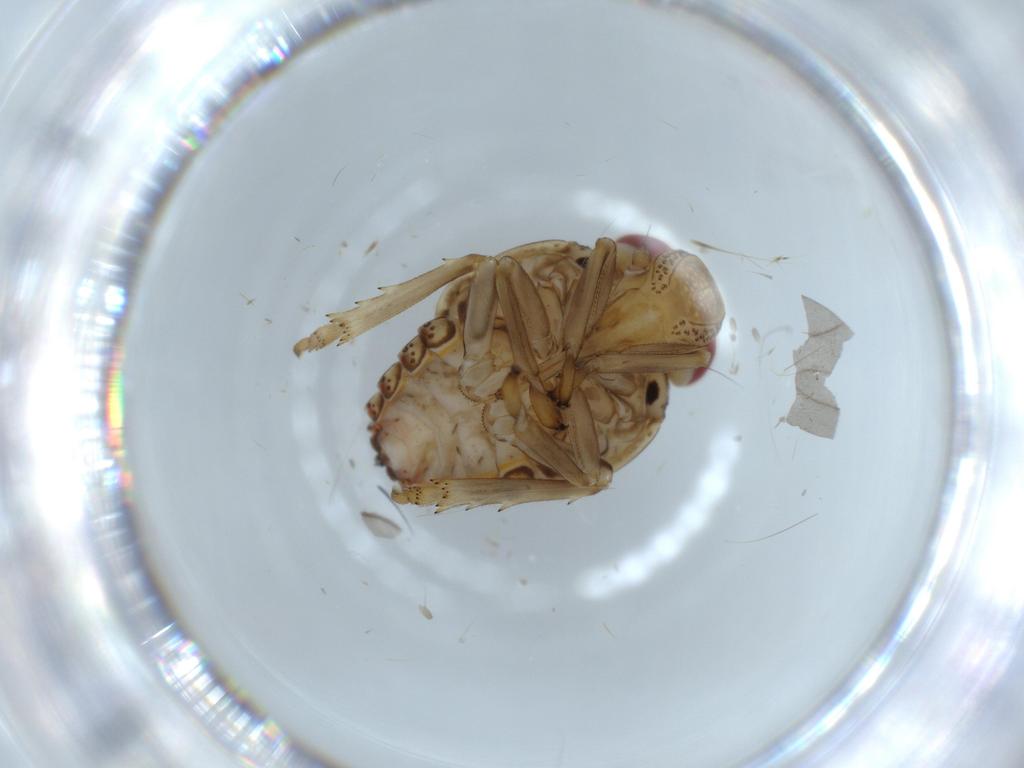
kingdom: Animalia
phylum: Arthropoda
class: Insecta
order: Hemiptera
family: Issidae
